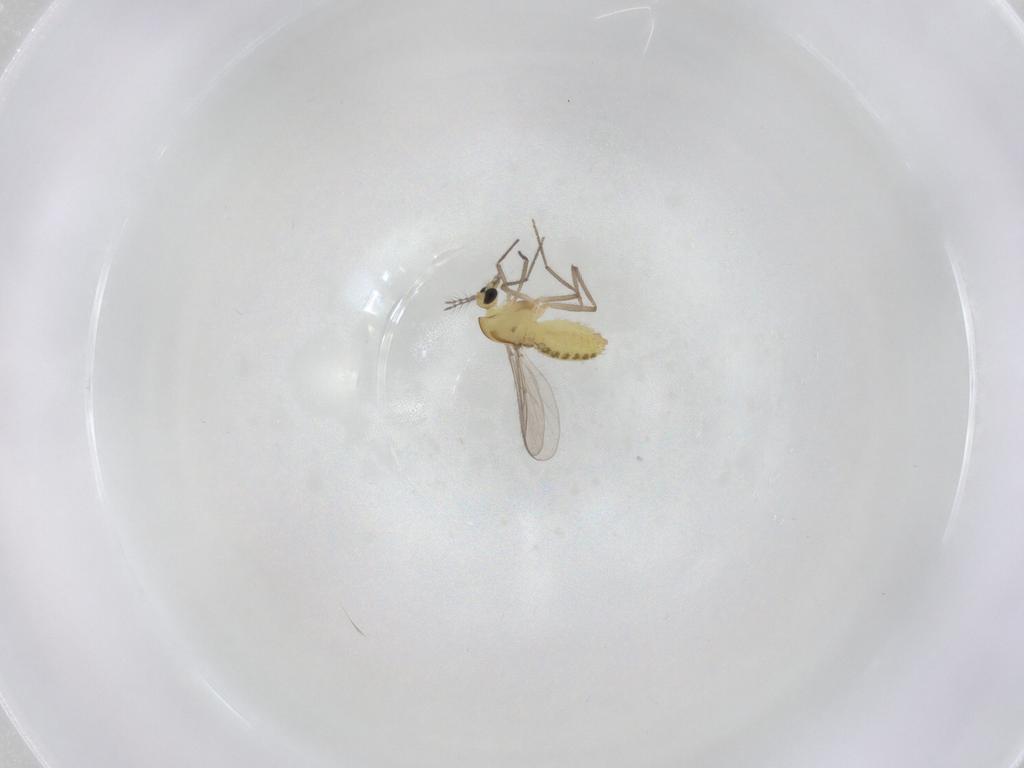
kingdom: Animalia
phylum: Arthropoda
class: Insecta
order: Diptera
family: Chironomidae
